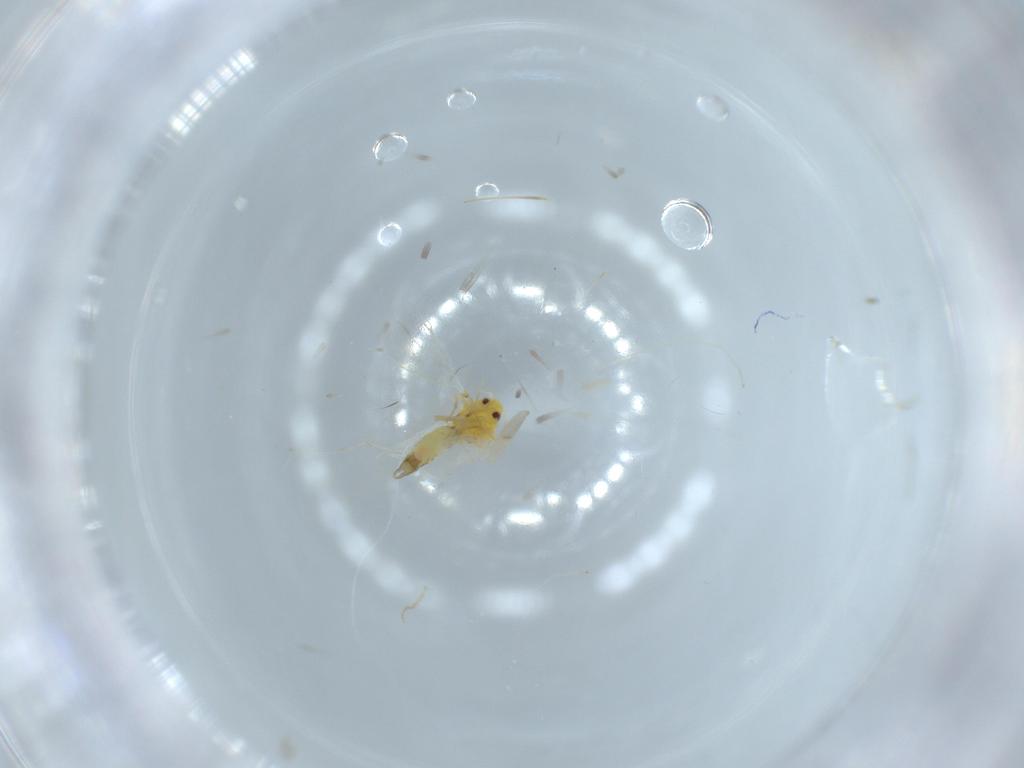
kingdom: Animalia
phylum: Arthropoda
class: Insecta
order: Hemiptera
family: Aleyrodidae
